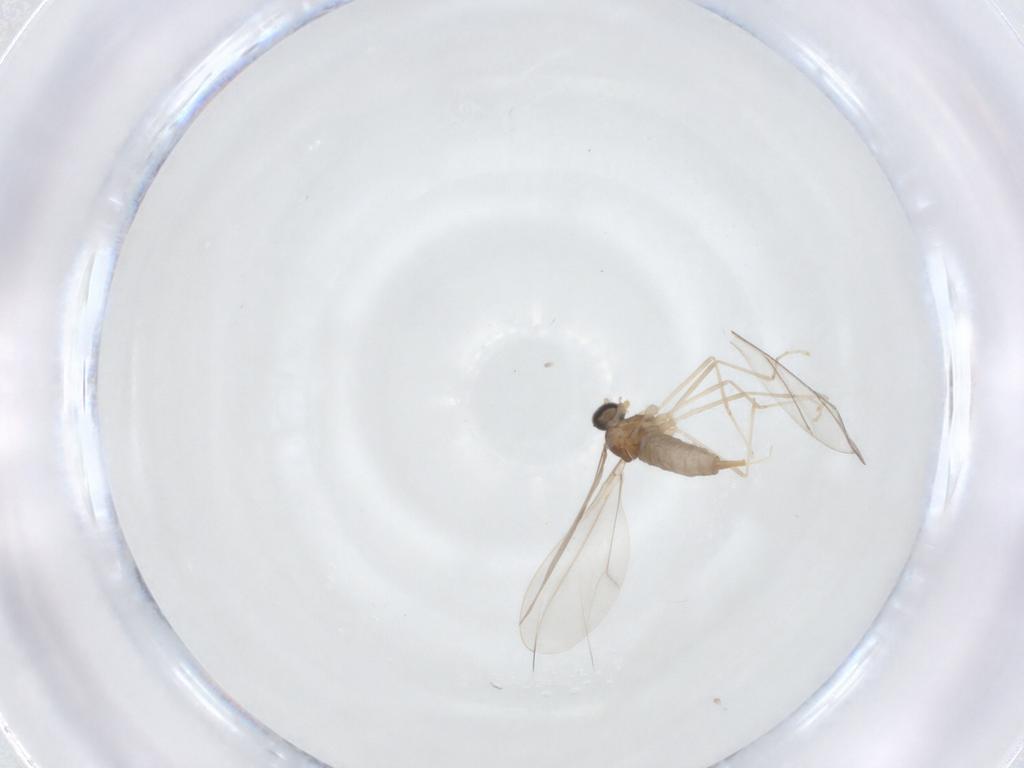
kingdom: Animalia
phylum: Arthropoda
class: Insecta
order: Diptera
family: Cecidomyiidae
